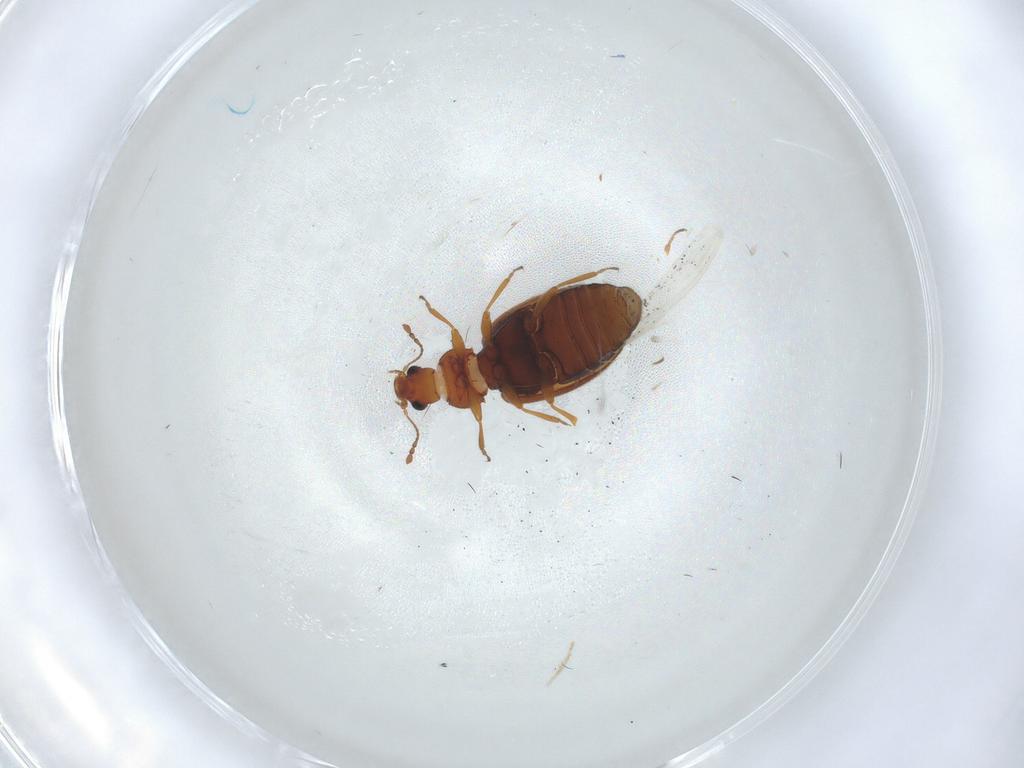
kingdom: Animalia
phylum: Arthropoda
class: Insecta
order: Coleoptera
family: Latridiidae
